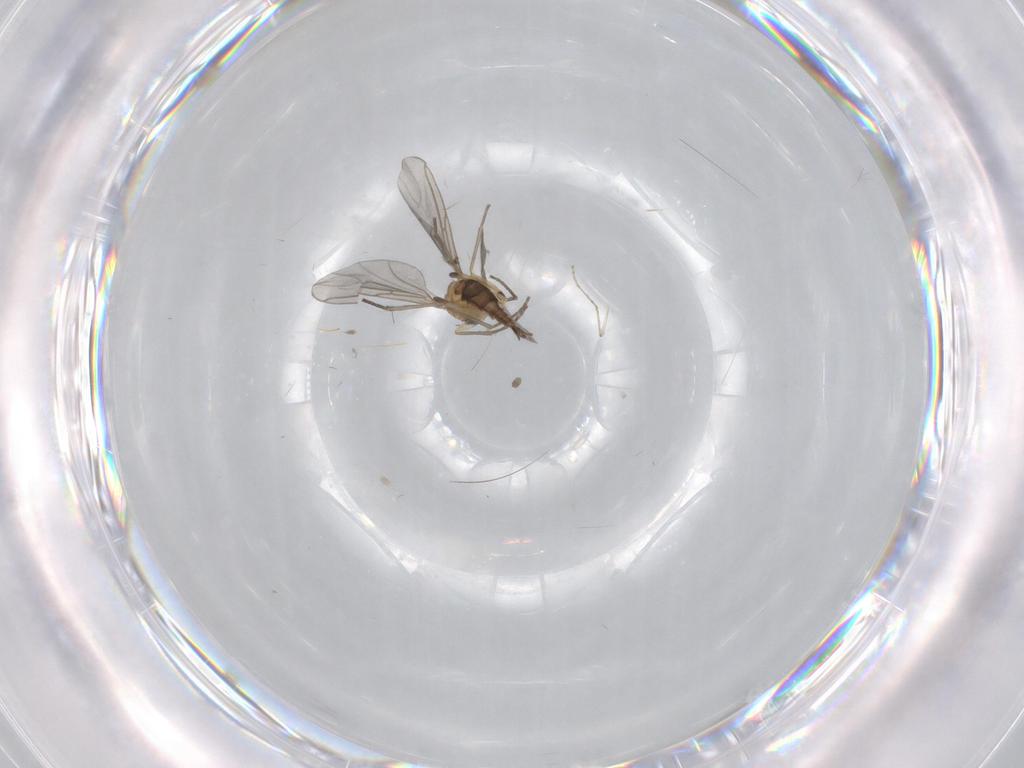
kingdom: Animalia
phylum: Arthropoda
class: Insecta
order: Diptera
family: Sciaridae
